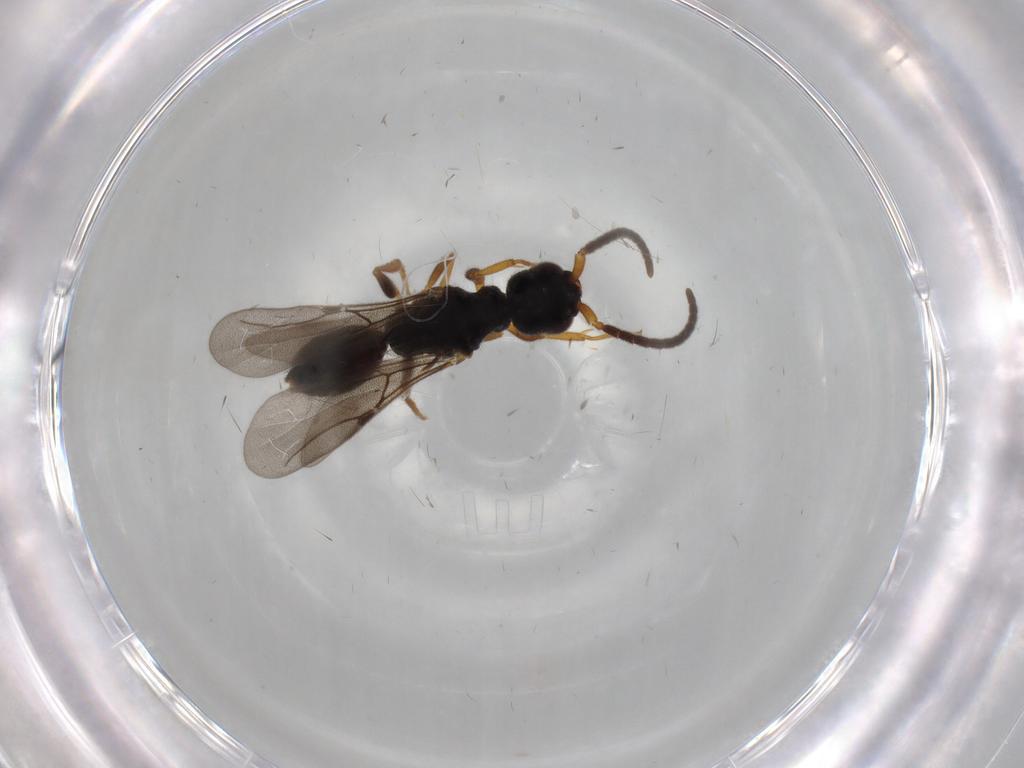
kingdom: Animalia
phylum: Arthropoda
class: Insecta
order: Hymenoptera
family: Bethylidae
